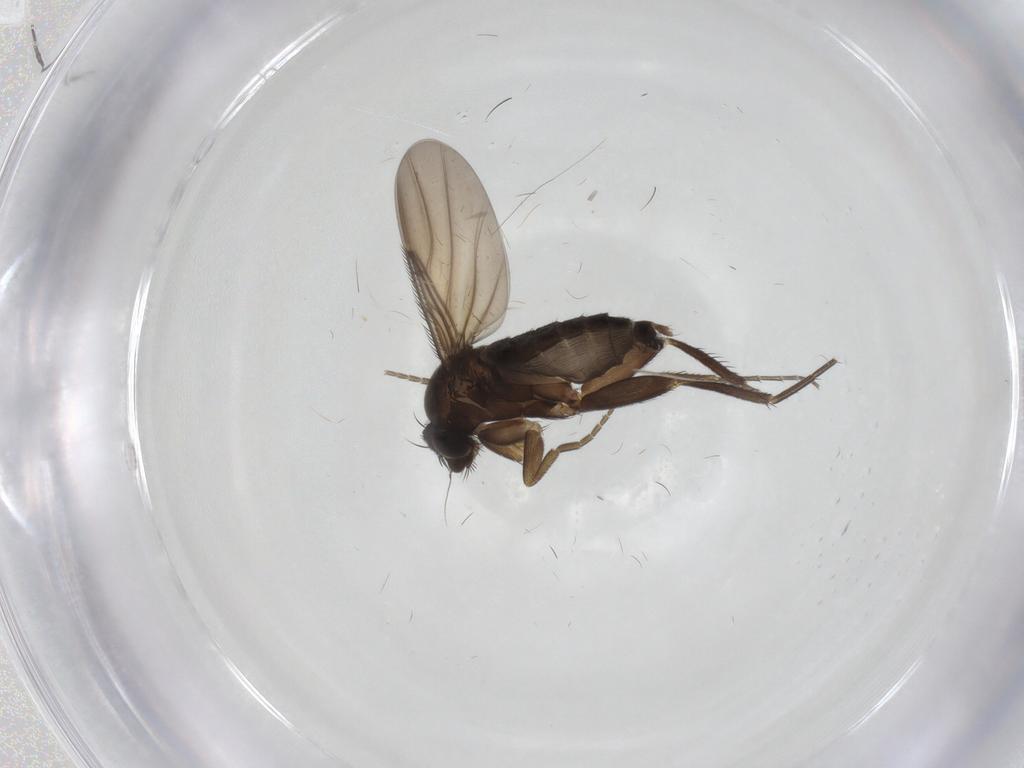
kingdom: Animalia
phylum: Arthropoda
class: Insecta
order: Diptera
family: Phoridae
